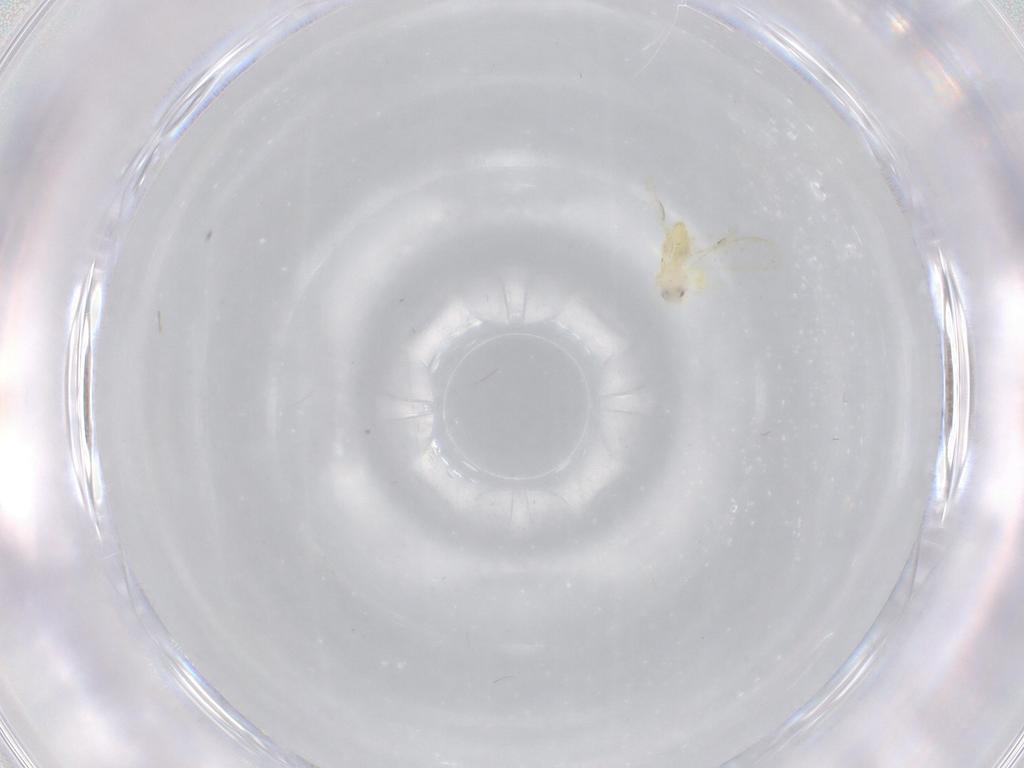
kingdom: Animalia
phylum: Arthropoda
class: Insecta
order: Hemiptera
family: Aleyrodidae
